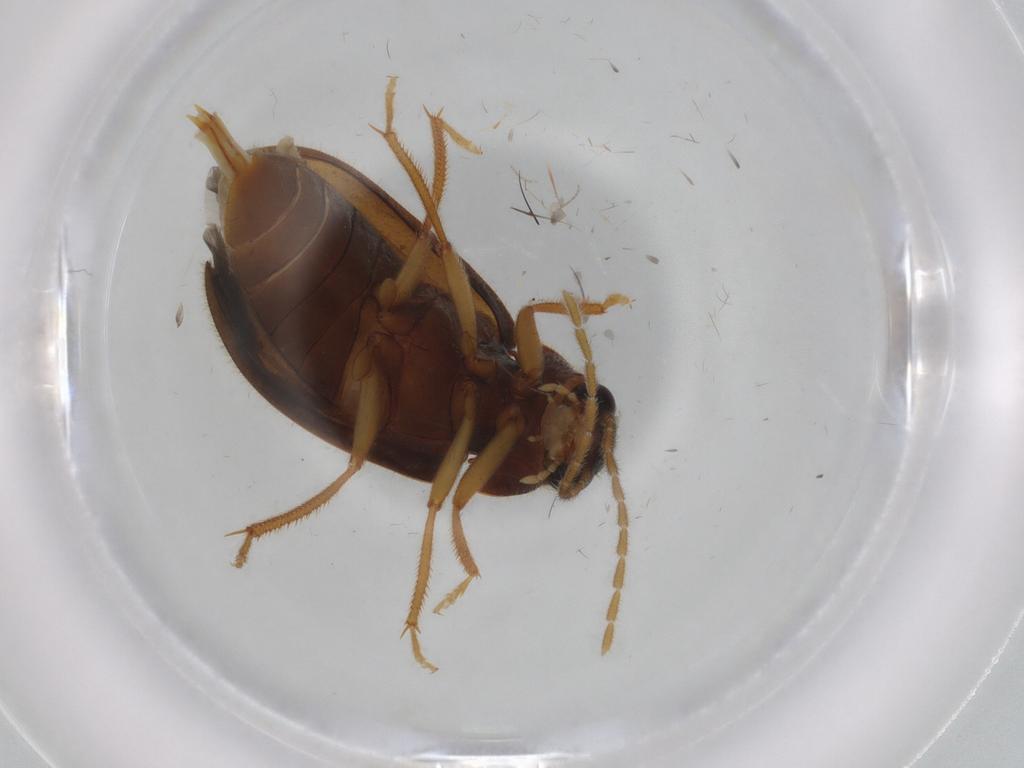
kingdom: Animalia
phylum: Arthropoda
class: Insecta
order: Coleoptera
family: Ptilodactylidae
